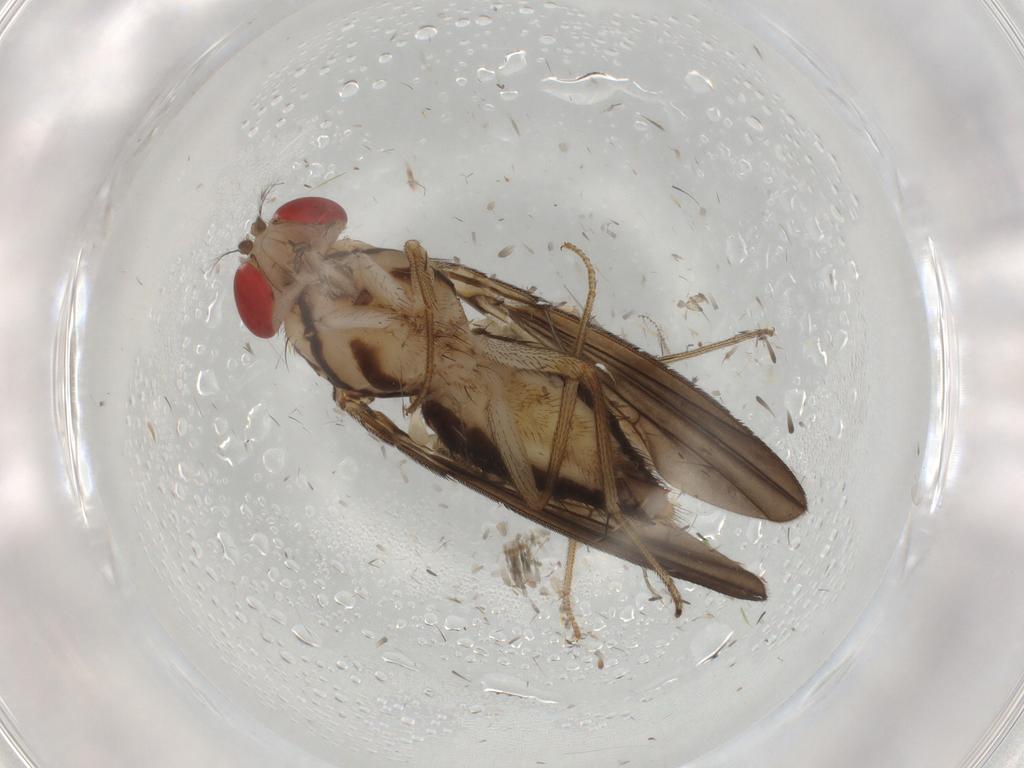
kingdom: Animalia
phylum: Arthropoda
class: Insecta
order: Diptera
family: Drosophilidae
